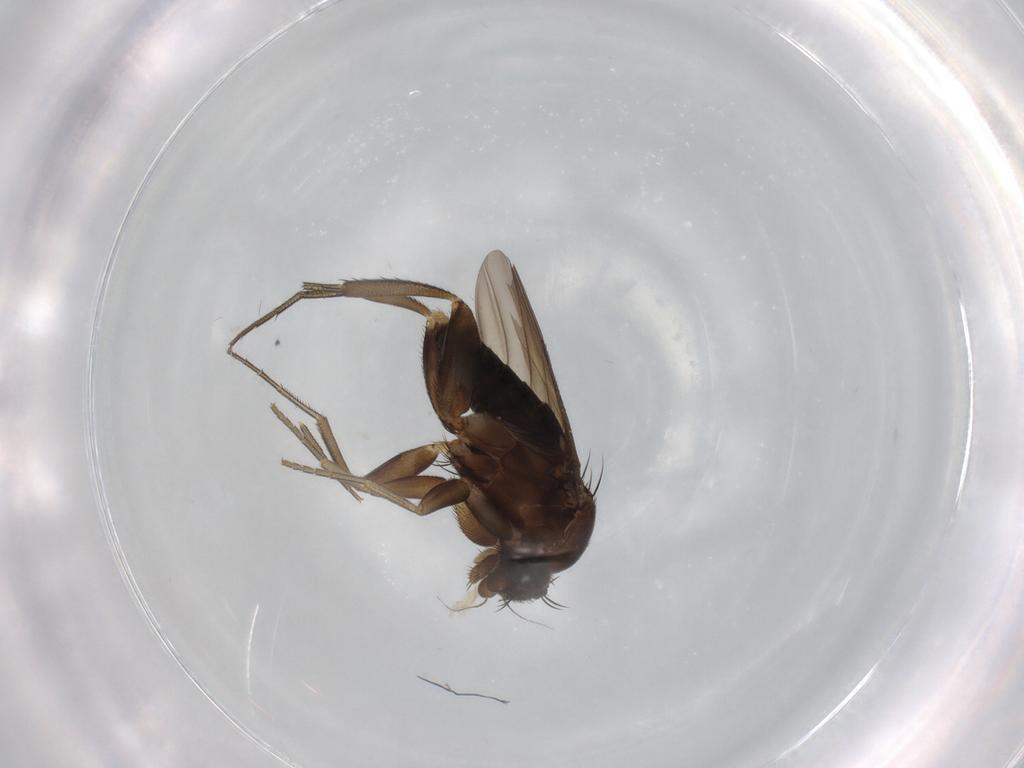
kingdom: Animalia
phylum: Arthropoda
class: Insecta
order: Diptera
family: Phoridae
